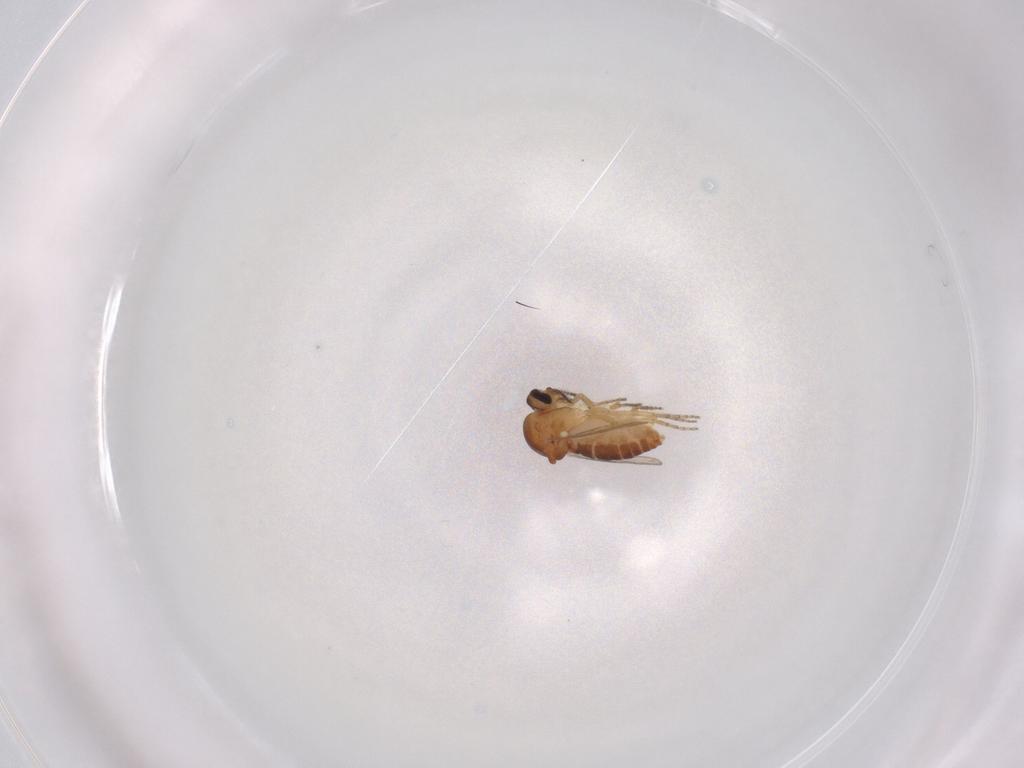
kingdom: Animalia
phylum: Arthropoda
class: Insecta
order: Diptera
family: Ceratopogonidae
